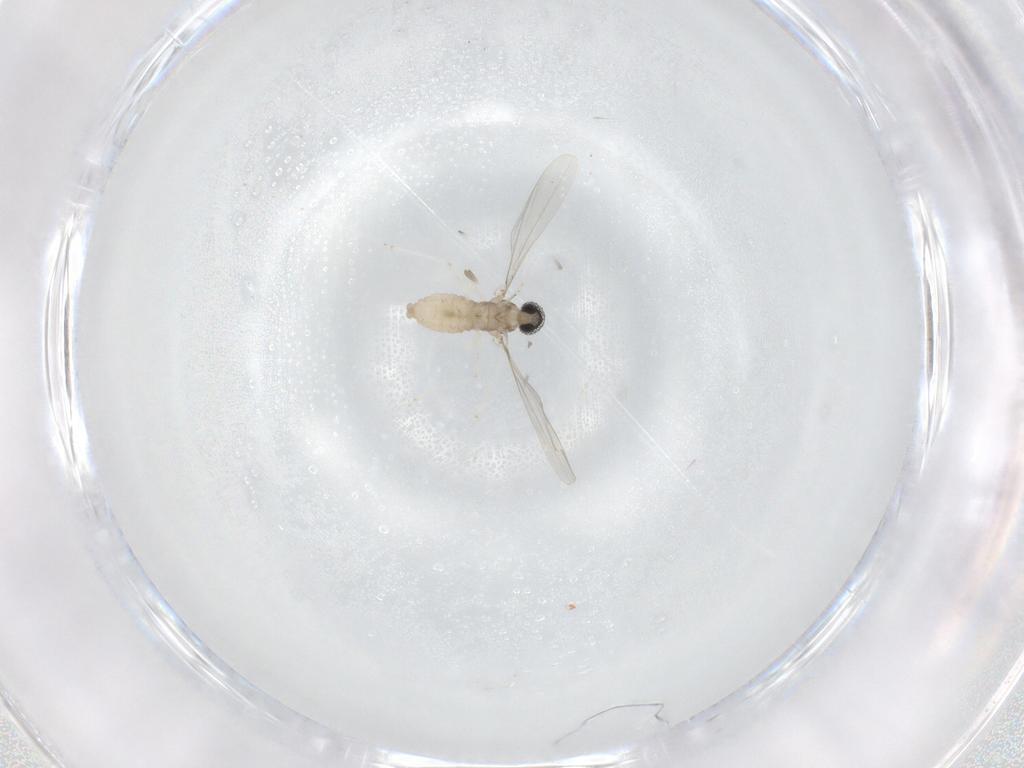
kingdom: Animalia
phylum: Arthropoda
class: Insecta
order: Diptera
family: Cecidomyiidae
